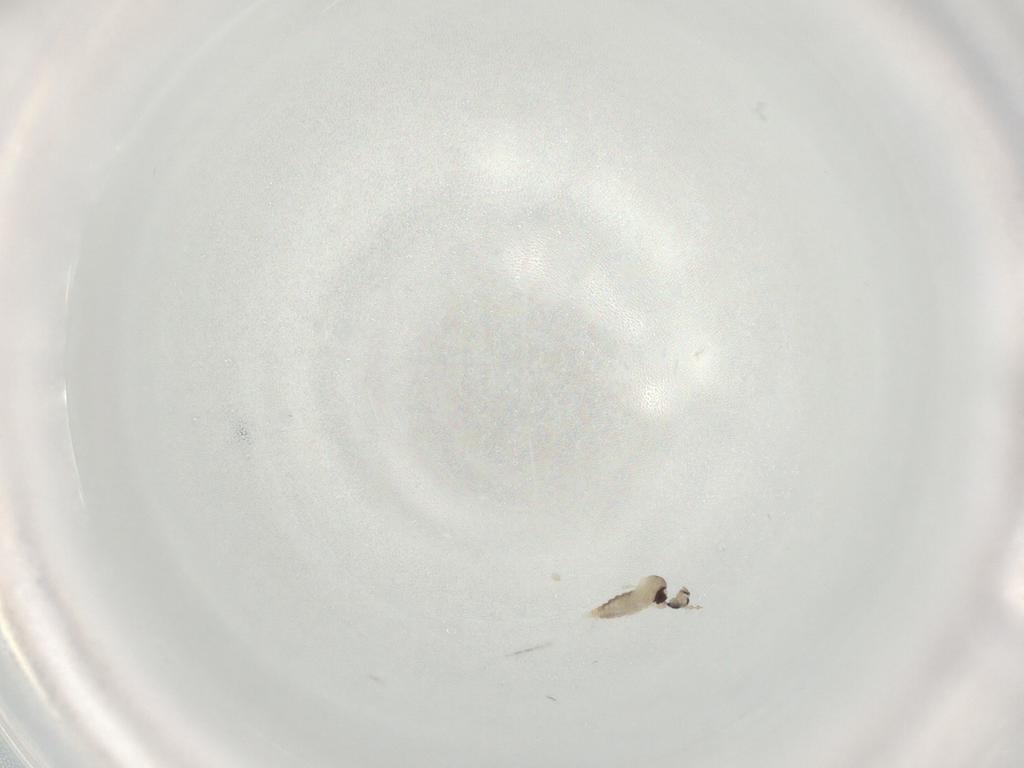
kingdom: Animalia
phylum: Arthropoda
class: Insecta
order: Diptera
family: Cecidomyiidae
